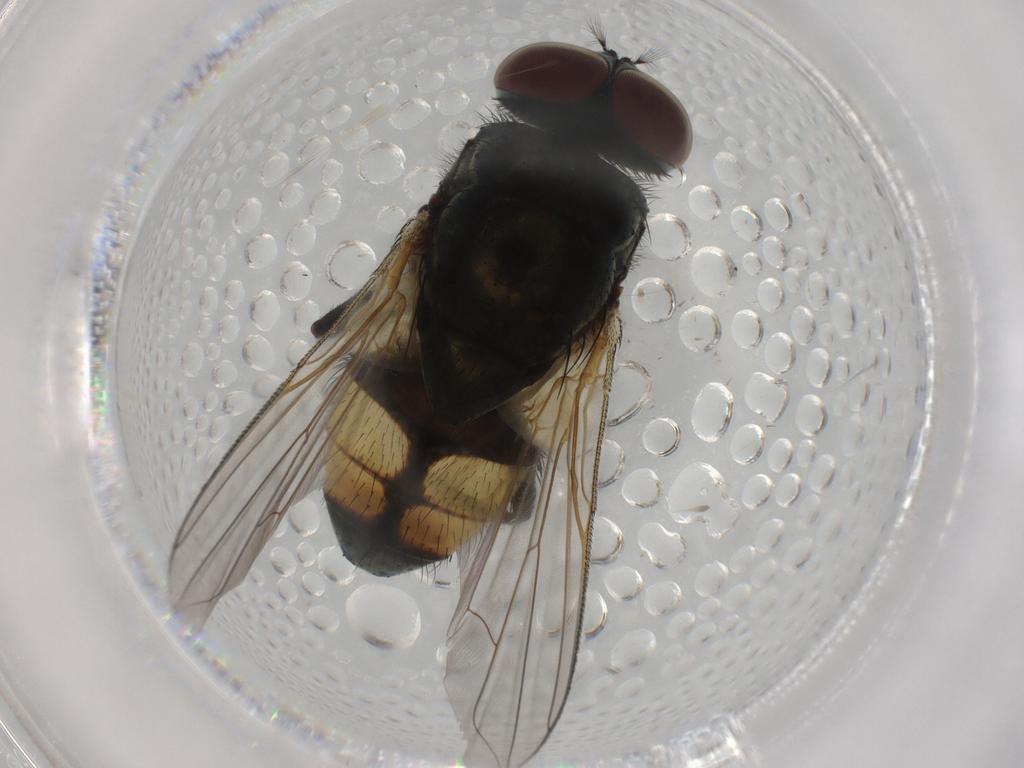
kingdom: Animalia
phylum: Arthropoda
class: Insecta
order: Diptera
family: Muscidae
